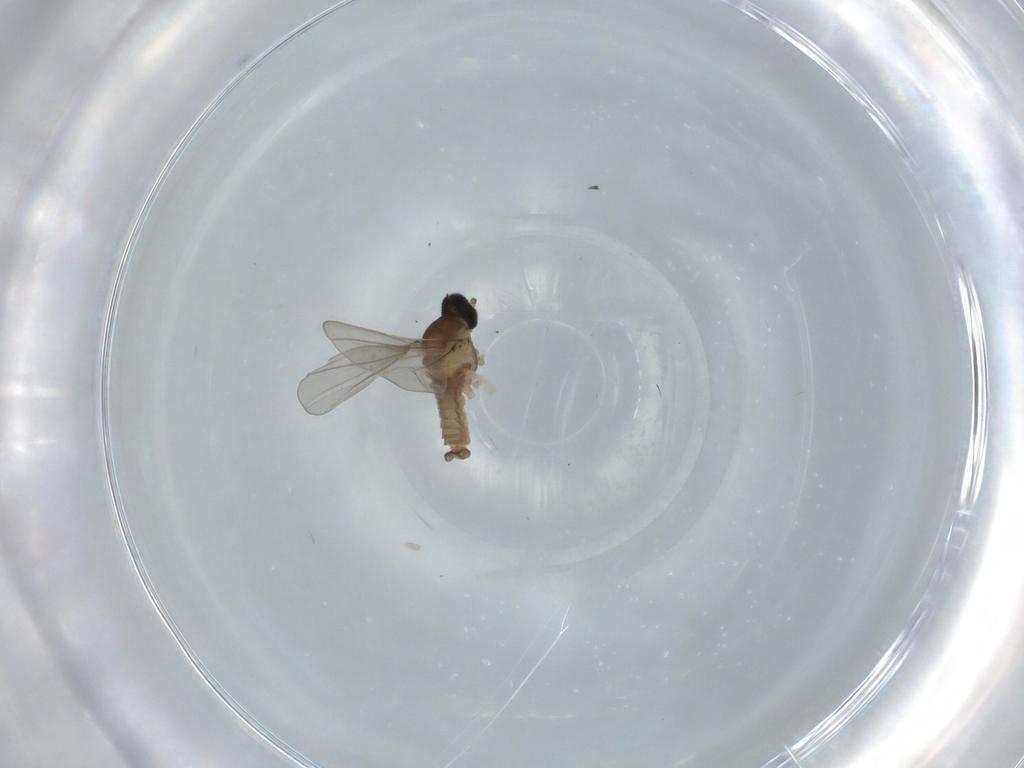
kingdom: Animalia
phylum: Arthropoda
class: Insecta
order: Diptera
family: Cecidomyiidae
